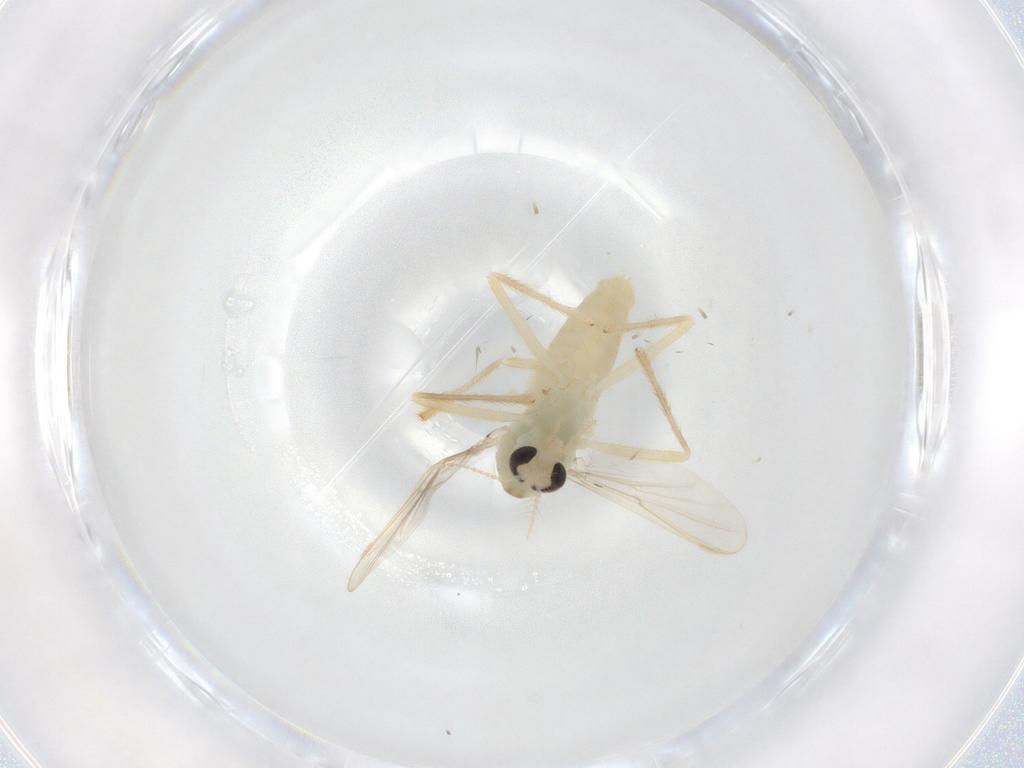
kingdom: Animalia
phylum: Arthropoda
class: Insecta
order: Diptera
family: Chironomidae
